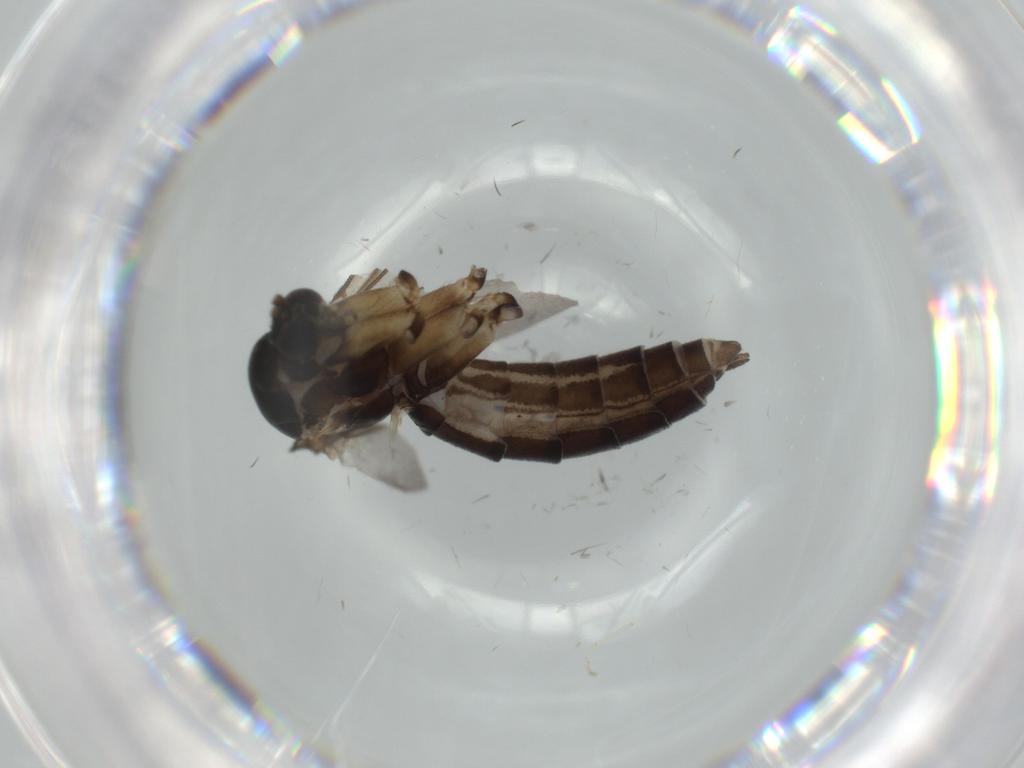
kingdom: Animalia
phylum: Arthropoda
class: Insecta
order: Diptera
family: Mycetophilidae
